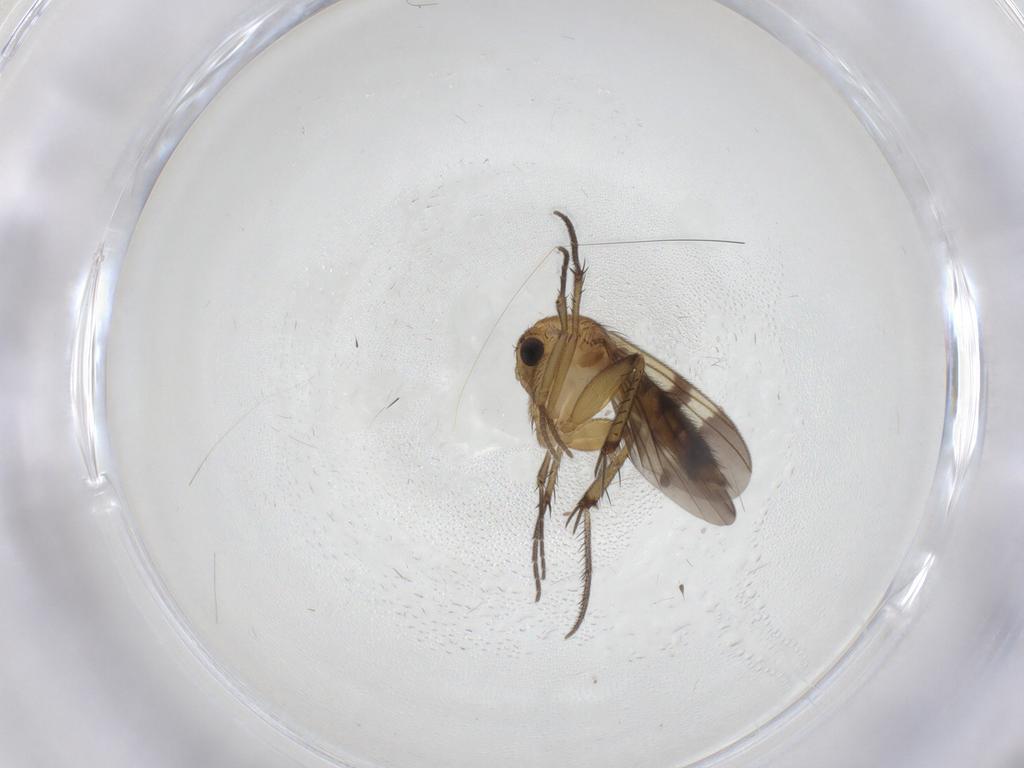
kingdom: Animalia
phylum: Arthropoda
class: Insecta
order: Diptera
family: Mycetophilidae
